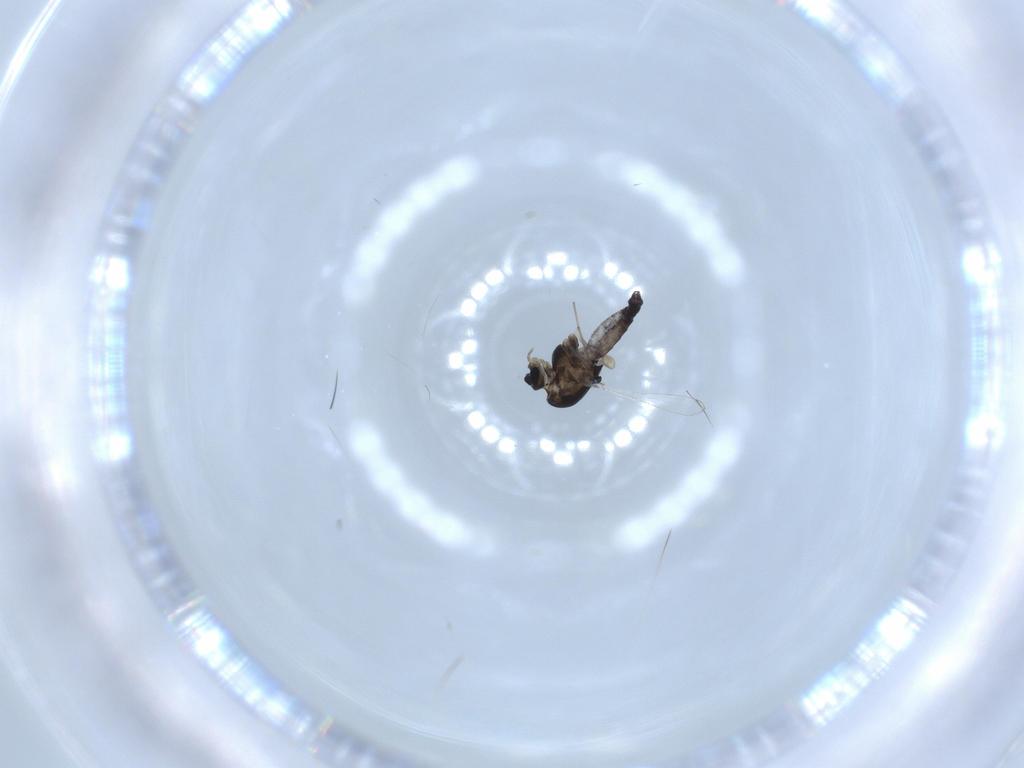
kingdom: Animalia
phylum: Arthropoda
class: Insecta
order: Diptera
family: Chironomidae
